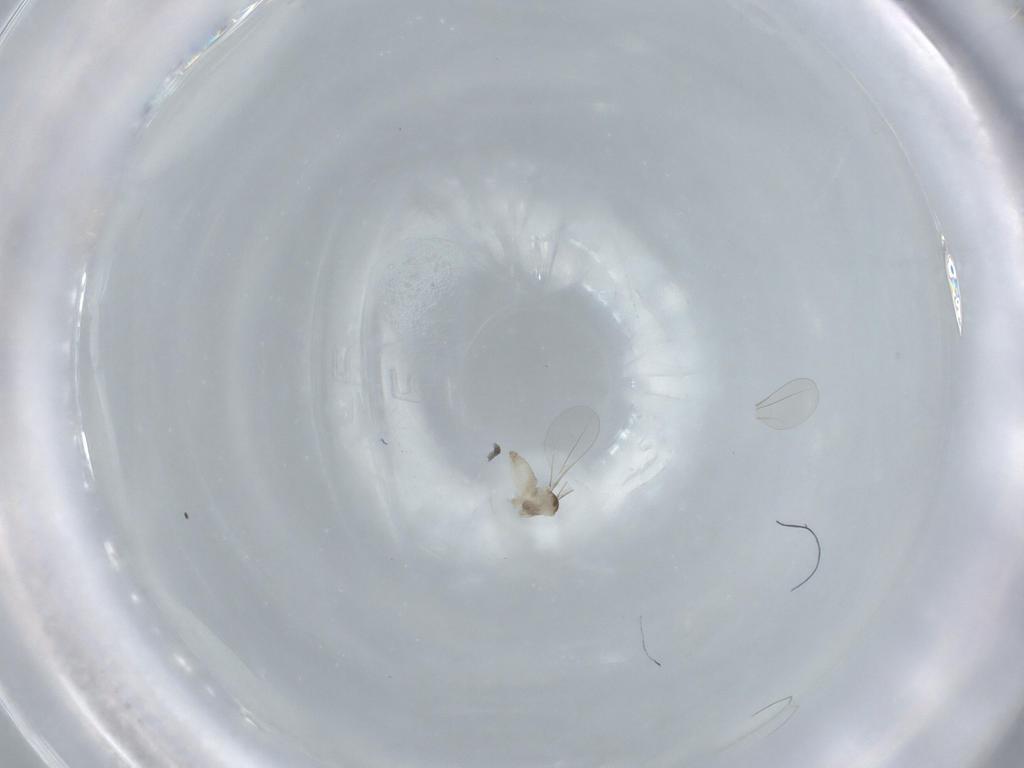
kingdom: Animalia
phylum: Arthropoda
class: Insecta
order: Diptera
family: Cecidomyiidae
